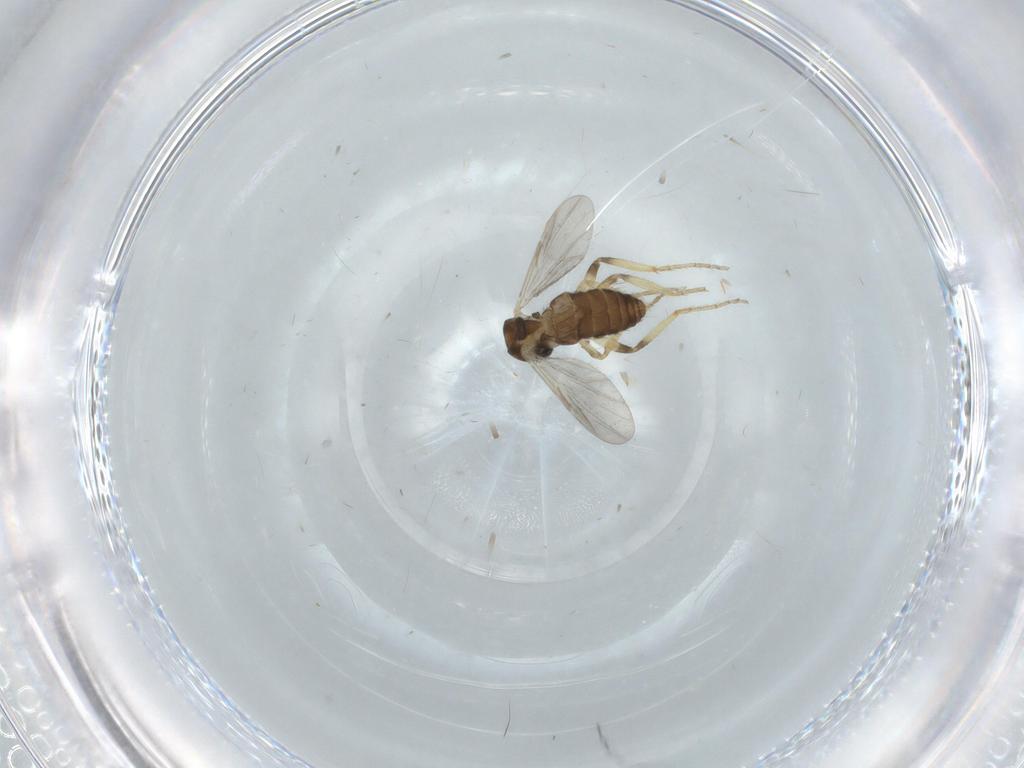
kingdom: Animalia
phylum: Arthropoda
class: Insecta
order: Diptera
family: Ceratopogonidae
